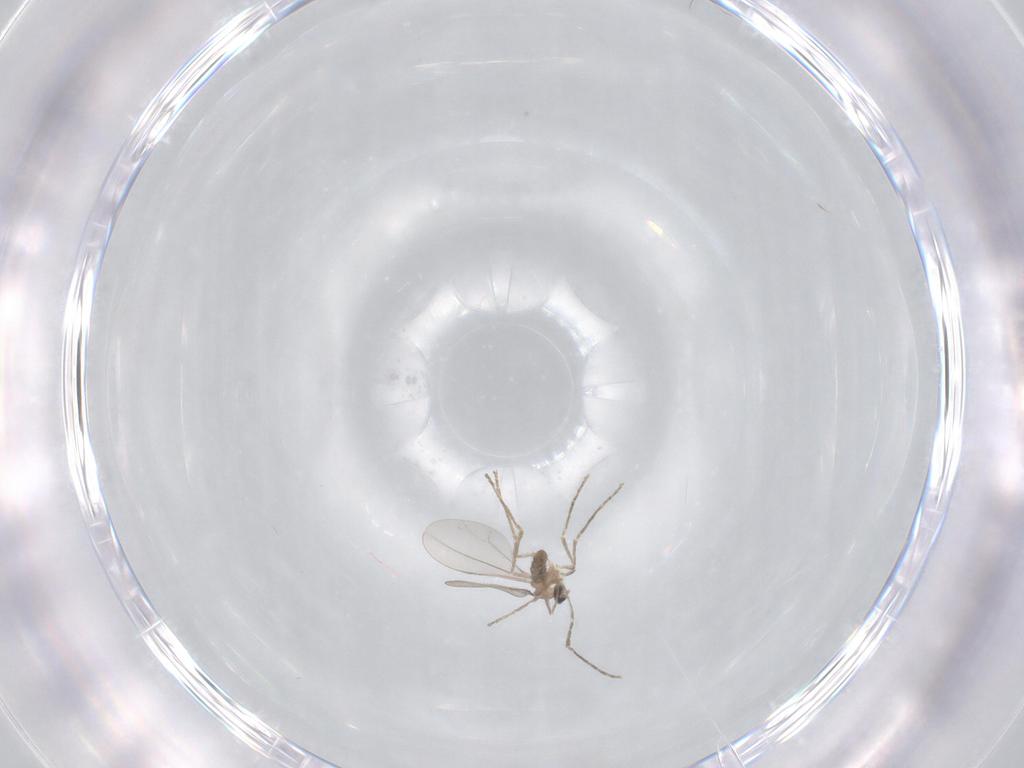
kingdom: Animalia
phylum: Arthropoda
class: Insecta
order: Diptera
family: Cecidomyiidae
